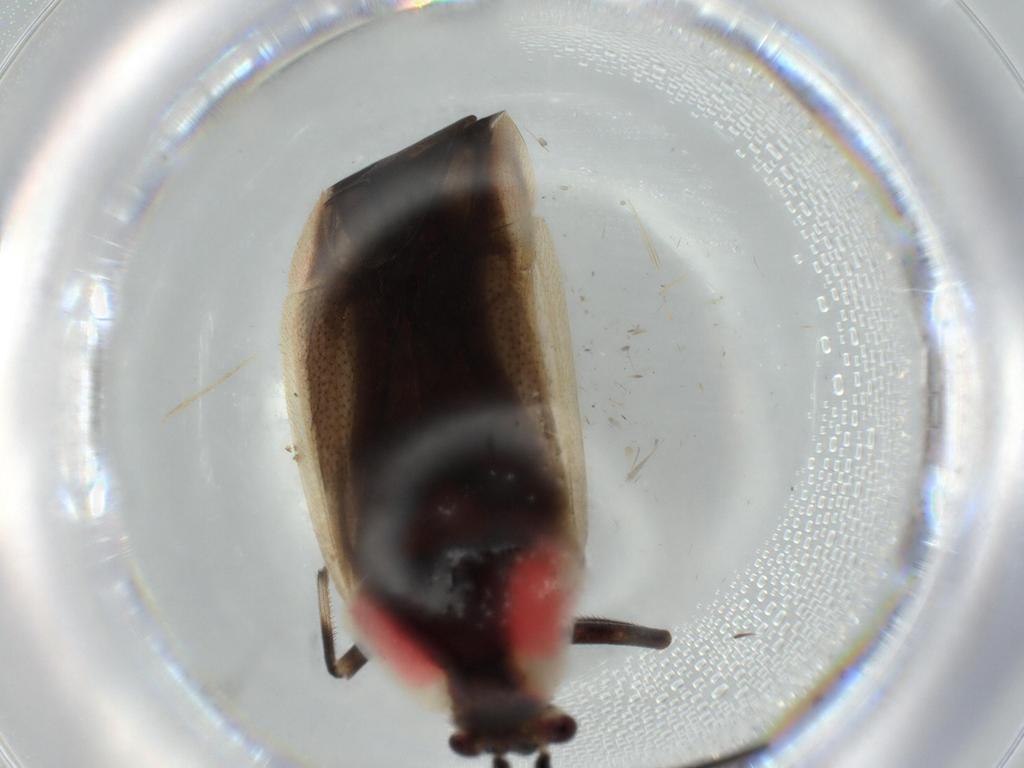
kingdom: Animalia
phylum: Arthropoda
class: Insecta
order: Hemiptera
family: Miridae
